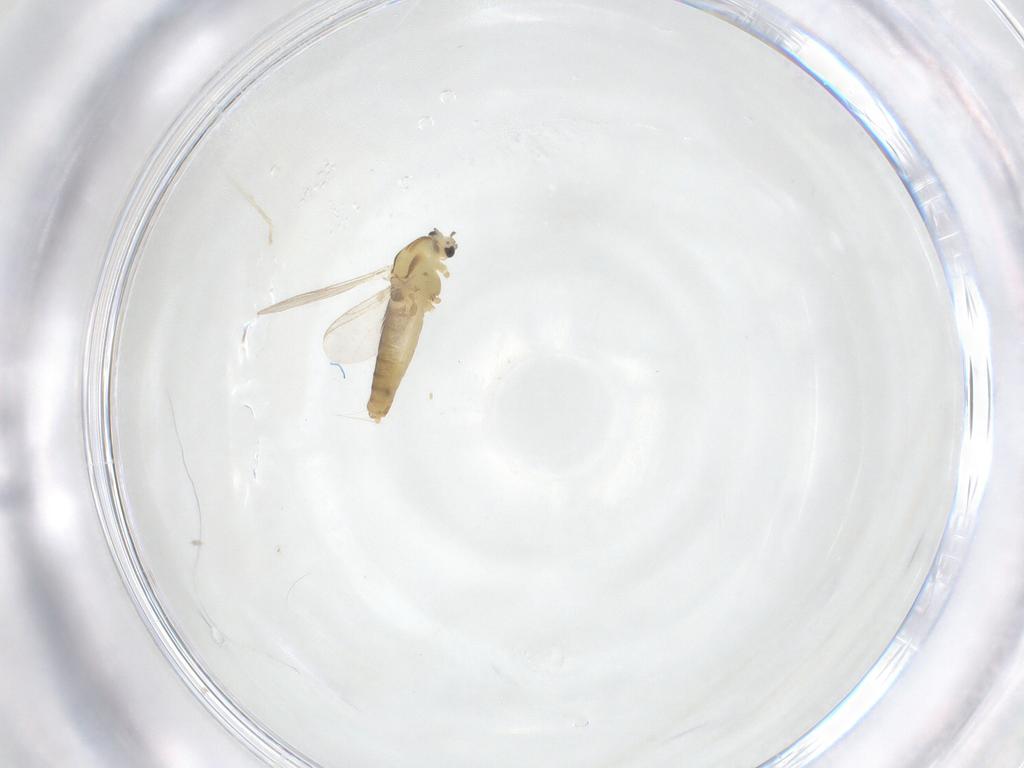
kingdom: Animalia
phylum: Arthropoda
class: Insecta
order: Diptera
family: Chironomidae
